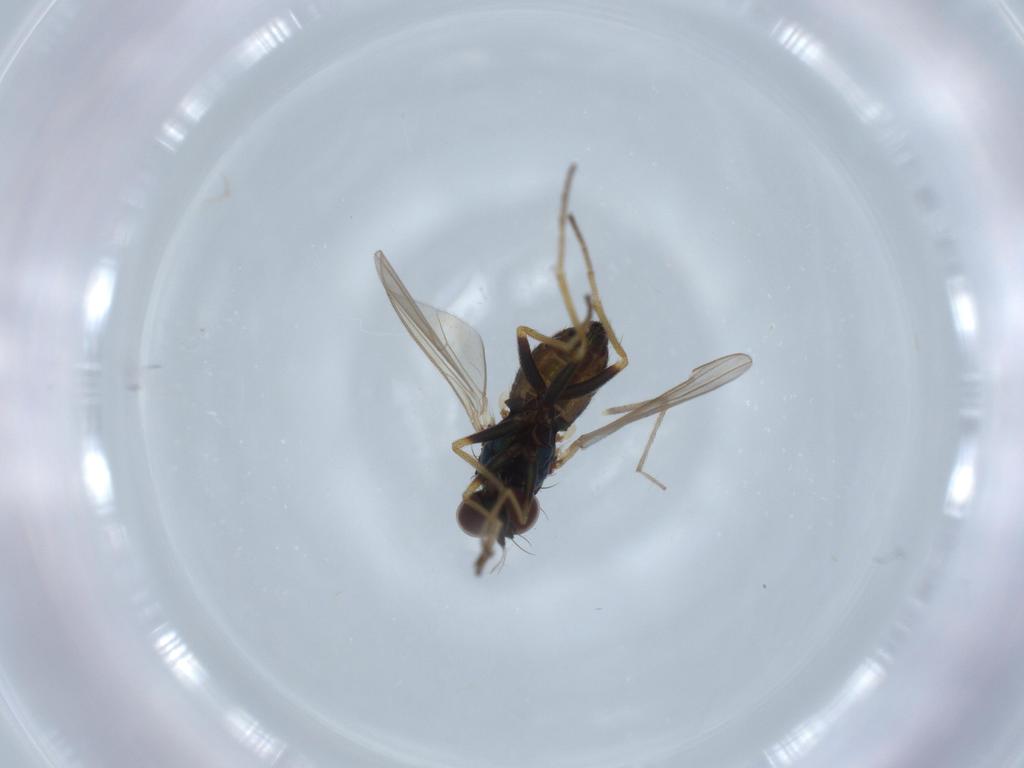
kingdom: Animalia
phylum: Arthropoda
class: Insecta
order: Diptera
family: Dolichopodidae
